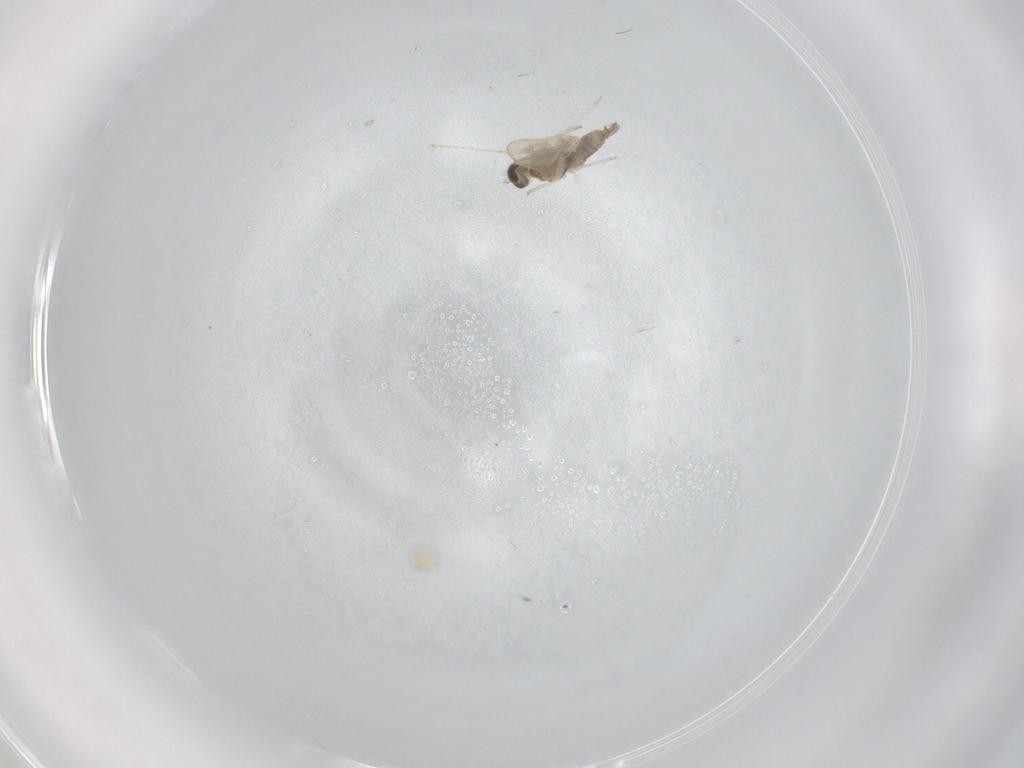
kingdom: Animalia
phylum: Arthropoda
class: Insecta
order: Diptera
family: Cecidomyiidae
